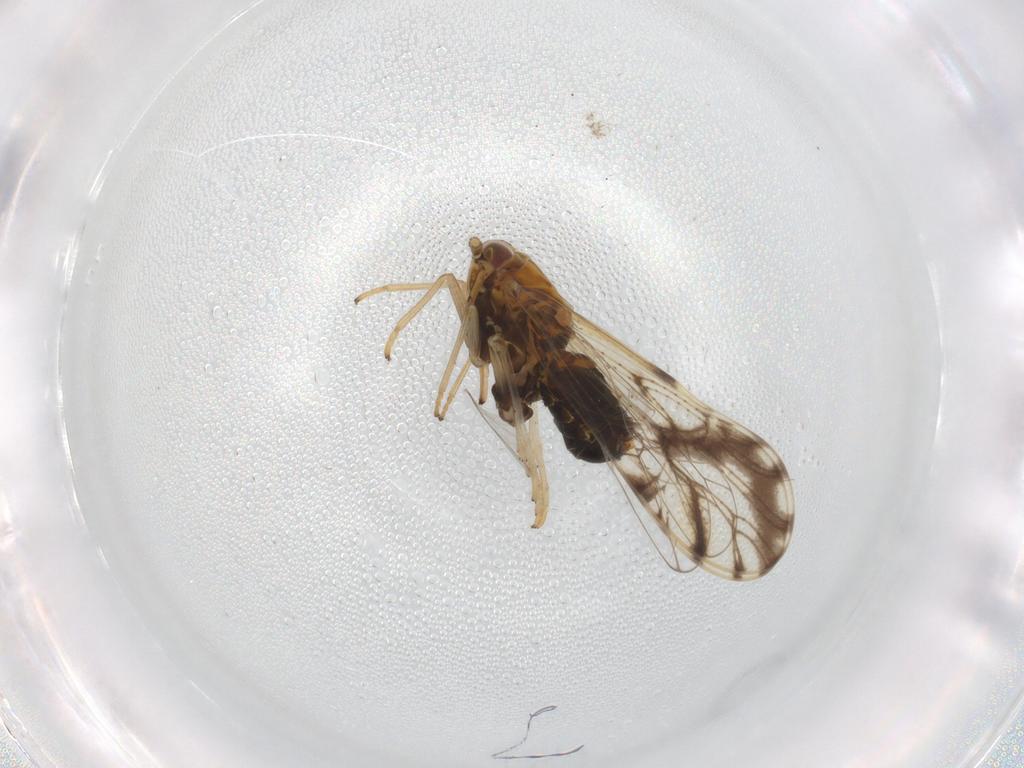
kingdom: Animalia
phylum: Arthropoda
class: Insecta
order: Hemiptera
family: Delphacidae
